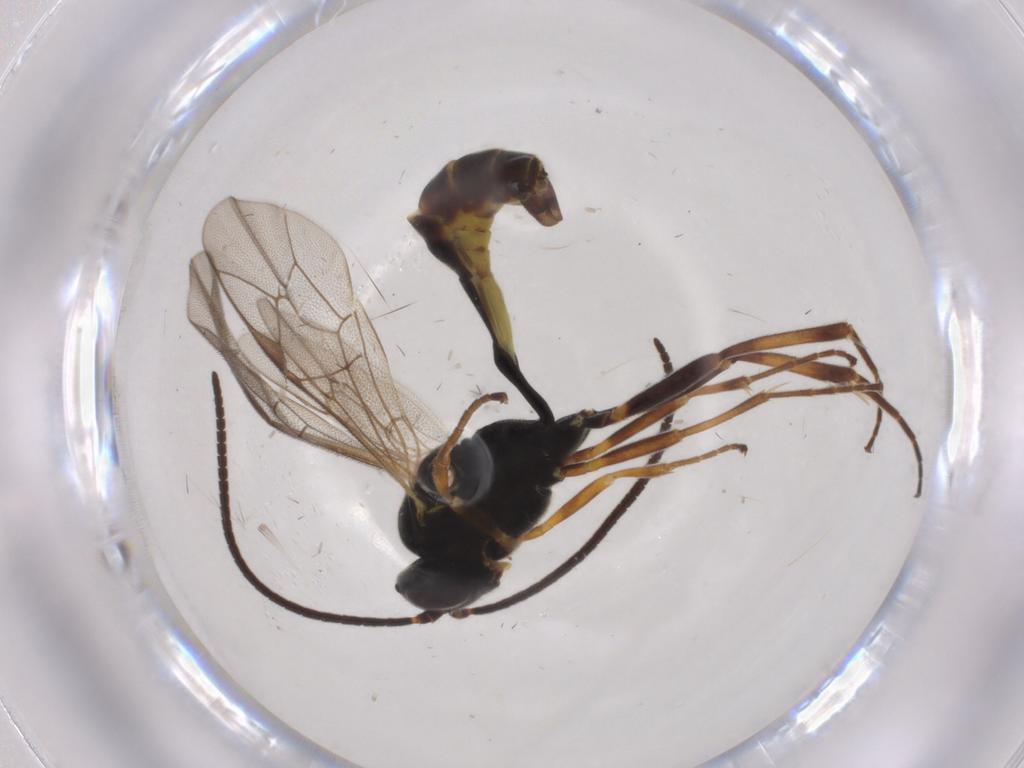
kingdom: Animalia
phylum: Arthropoda
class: Insecta
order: Hymenoptera
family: Ichneumonidae
